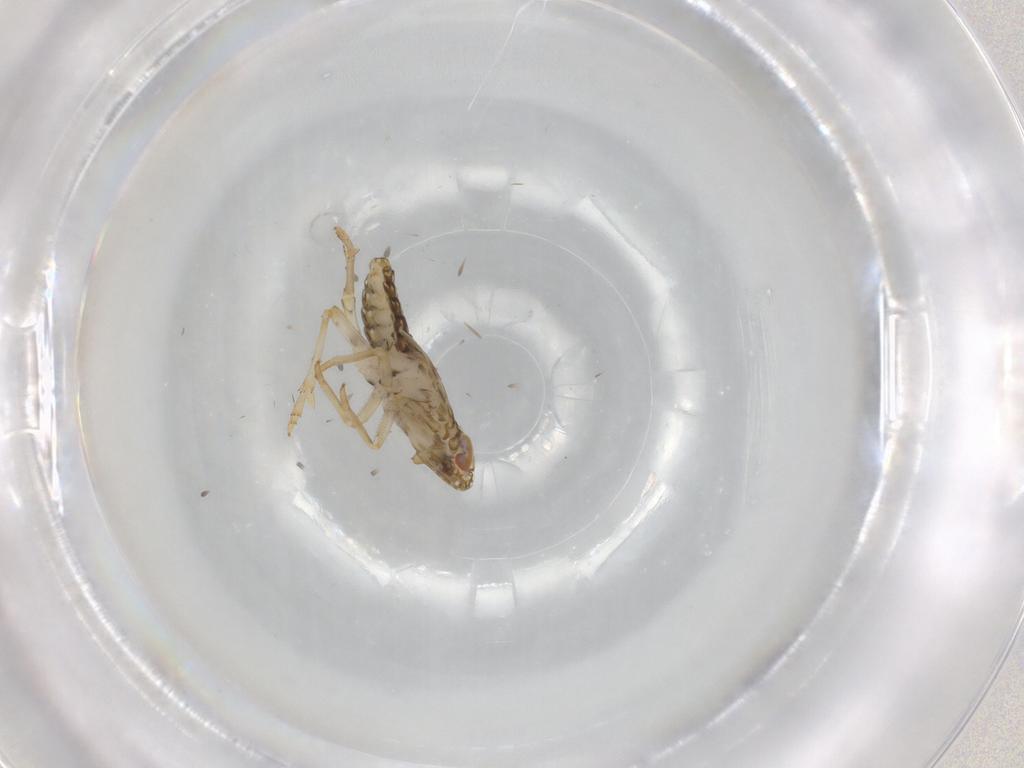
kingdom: Animalia
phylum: Arthropoda
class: Insecta
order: Hemiptera
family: Delphacidae
